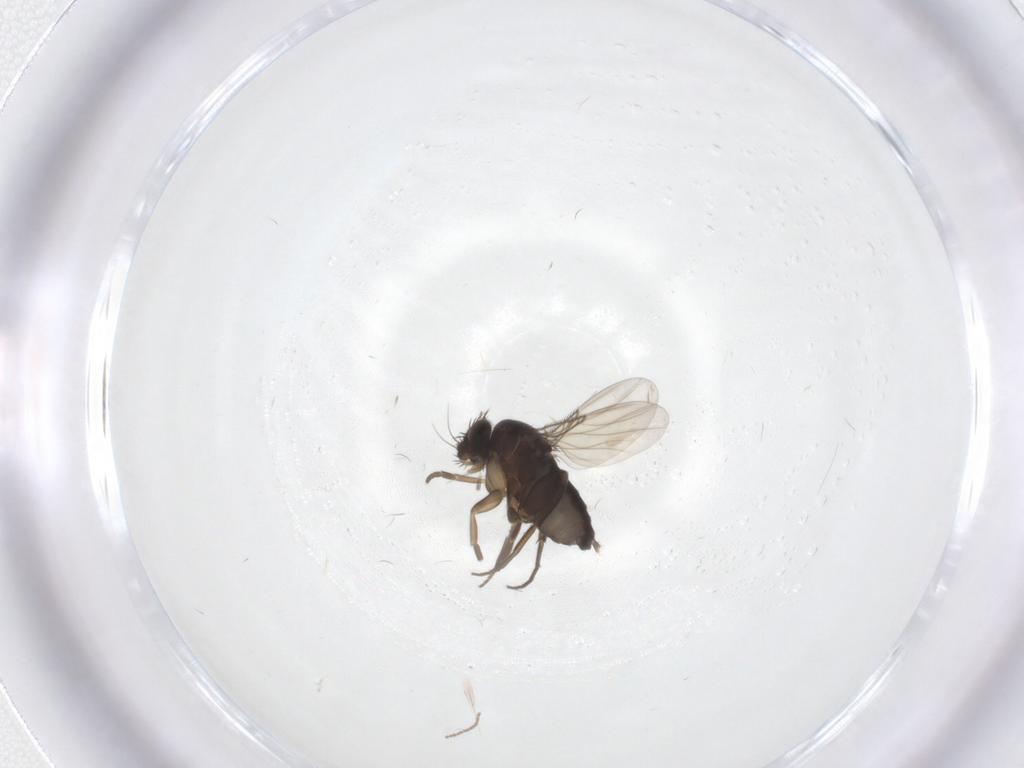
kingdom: Animalia
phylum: Arthropoda
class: Insecta
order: Diptera
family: Phoridae
